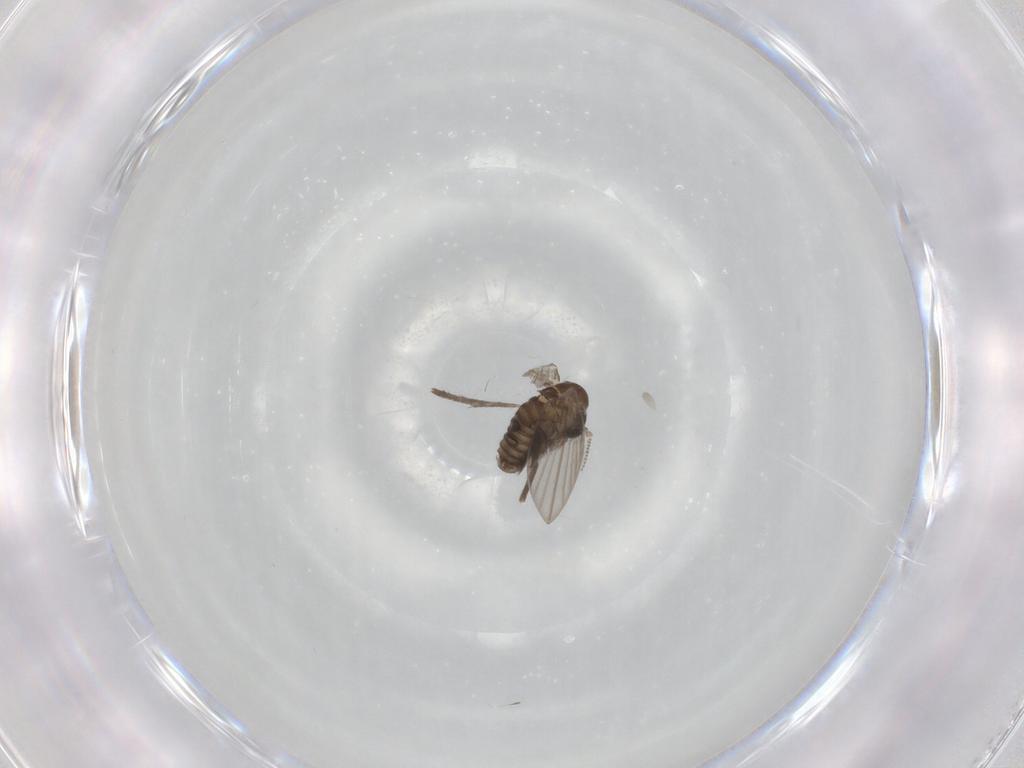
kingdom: Animalia
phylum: Arthropoda
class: Insecta
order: Diptera
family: Psychodidae
